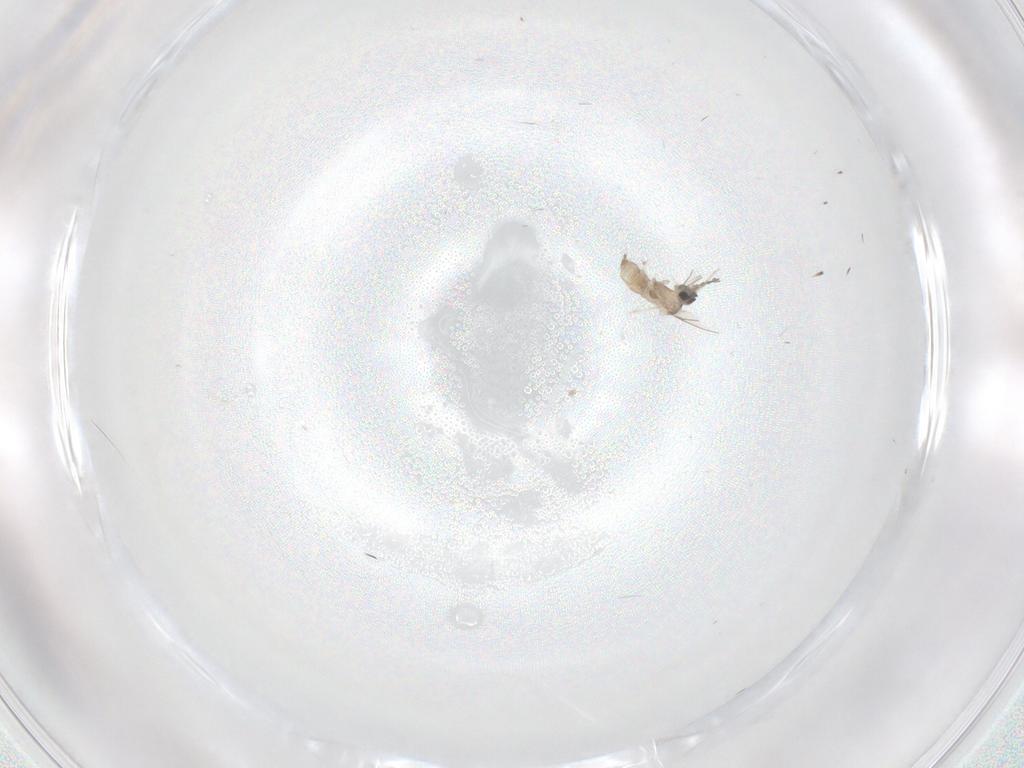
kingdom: Animalia
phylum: Arthropoda
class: Insecta
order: Diptera
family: Cecidomyiidae
